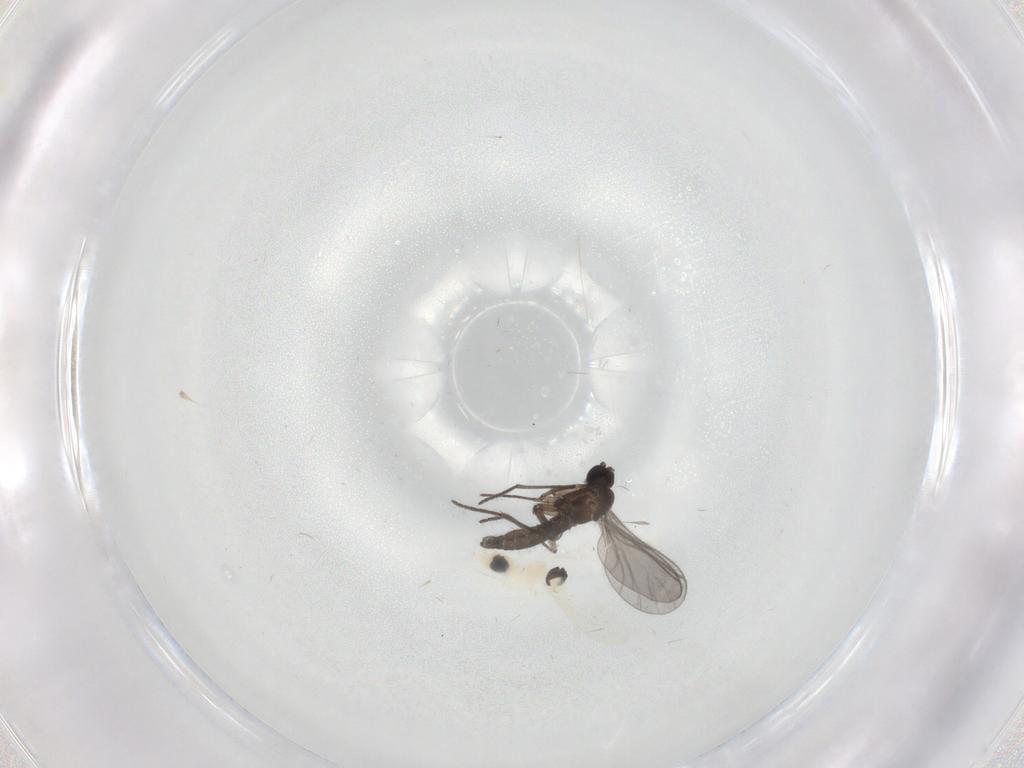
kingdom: Animalia
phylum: Arthropoda
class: Insecta
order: Diptera
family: Cecidomyiidae
